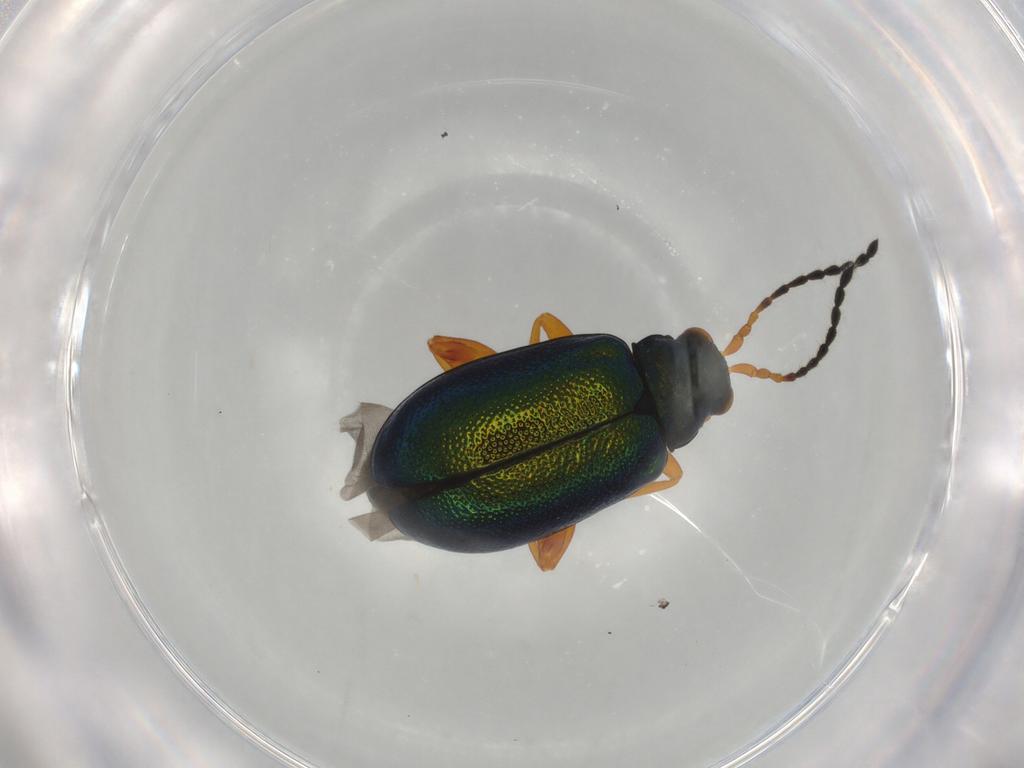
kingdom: Animalia
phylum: Arthropoda
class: Insecta
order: Coleoptera
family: Chrysomelidae
